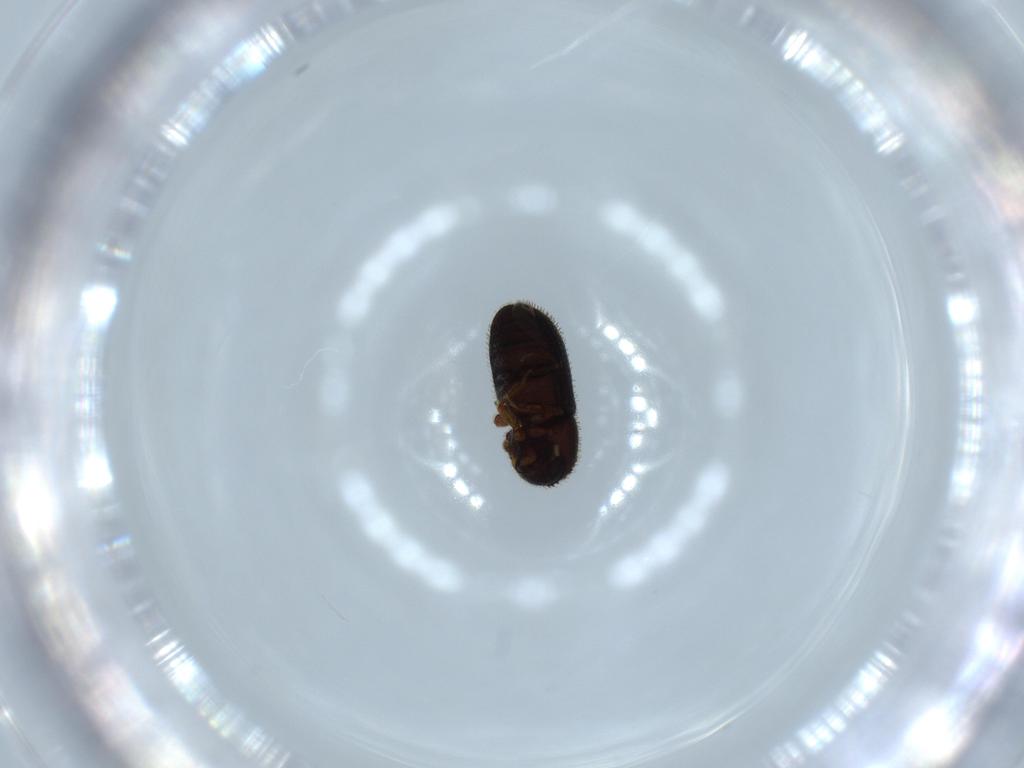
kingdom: Animalia
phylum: Arthropoda
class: Insecta
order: Coleoptera
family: Curculionidae
